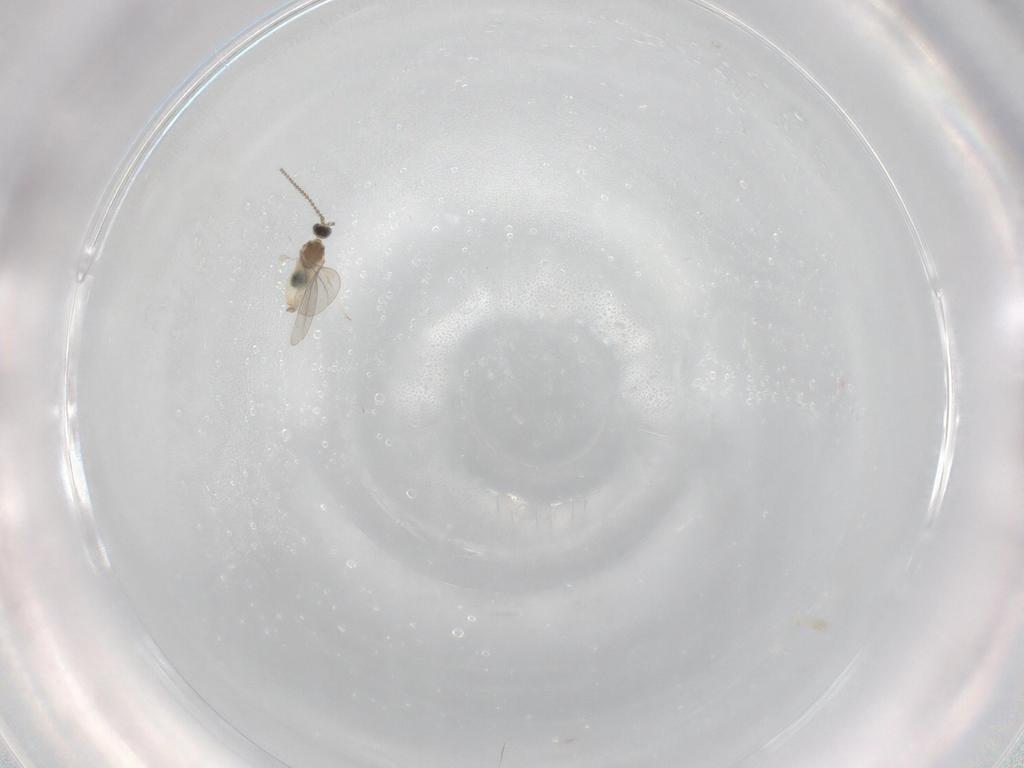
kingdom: Animalia
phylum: Arthropoda
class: Insecta
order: Diptera
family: Cecidomyiidae
